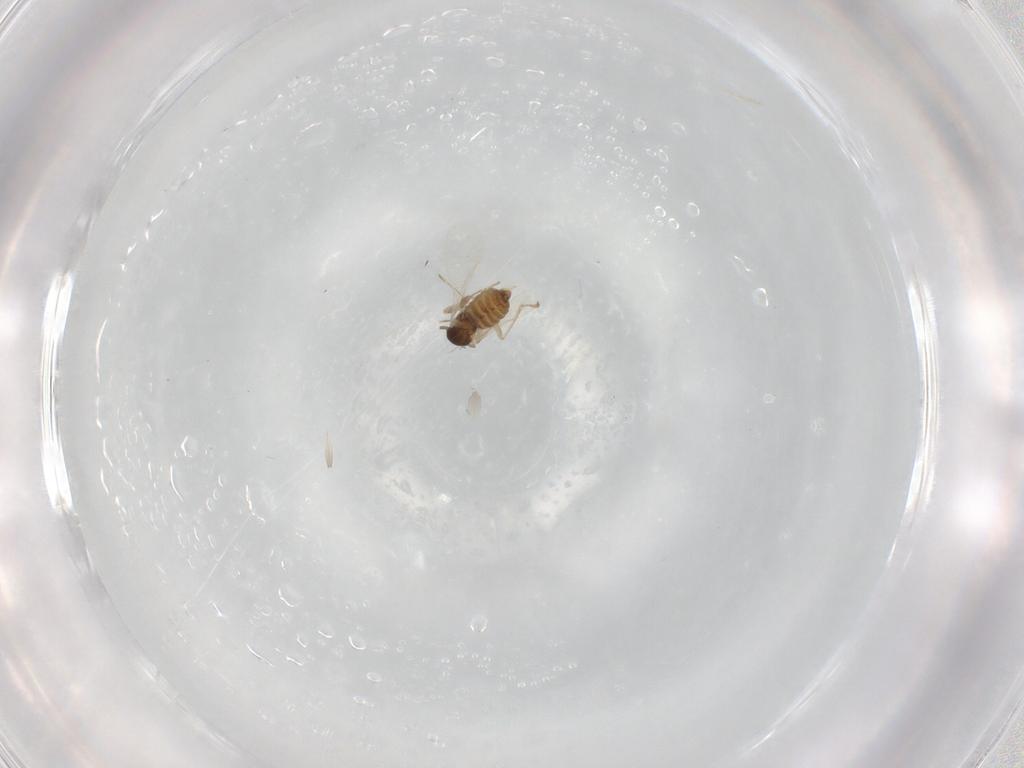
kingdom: Animalia
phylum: Arthropoda
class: Insecta
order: Diptera
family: Cecidomyiidae
